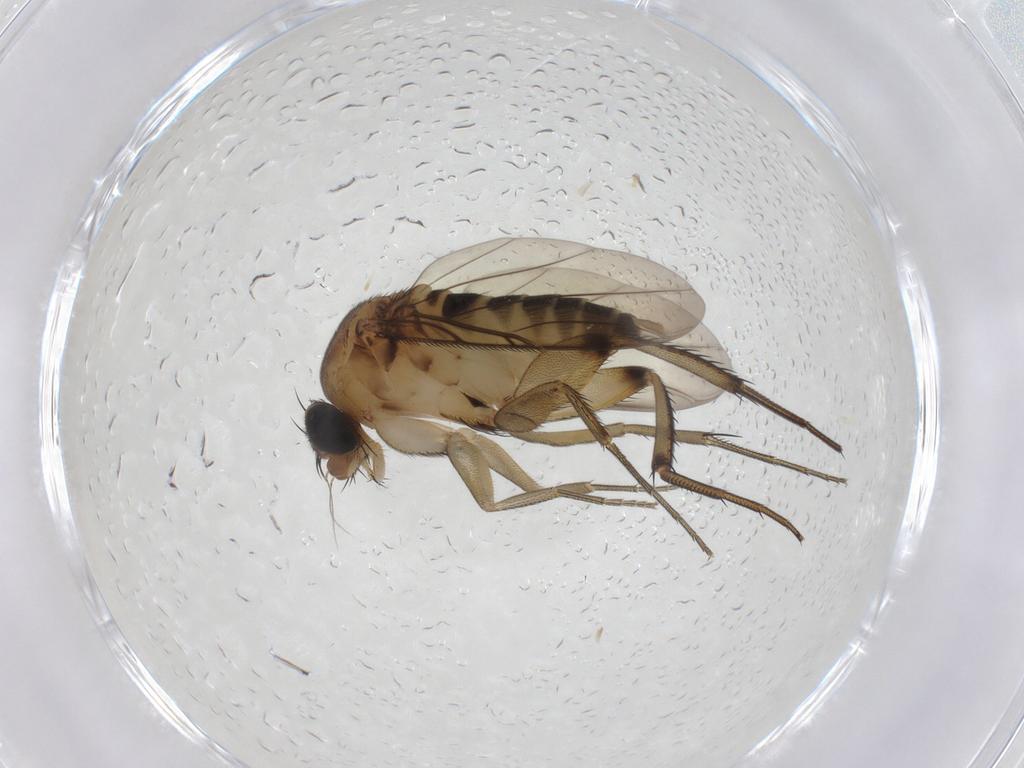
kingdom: Animalia
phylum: Arthropoda
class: Insecta
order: Diptera
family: Phoridae
